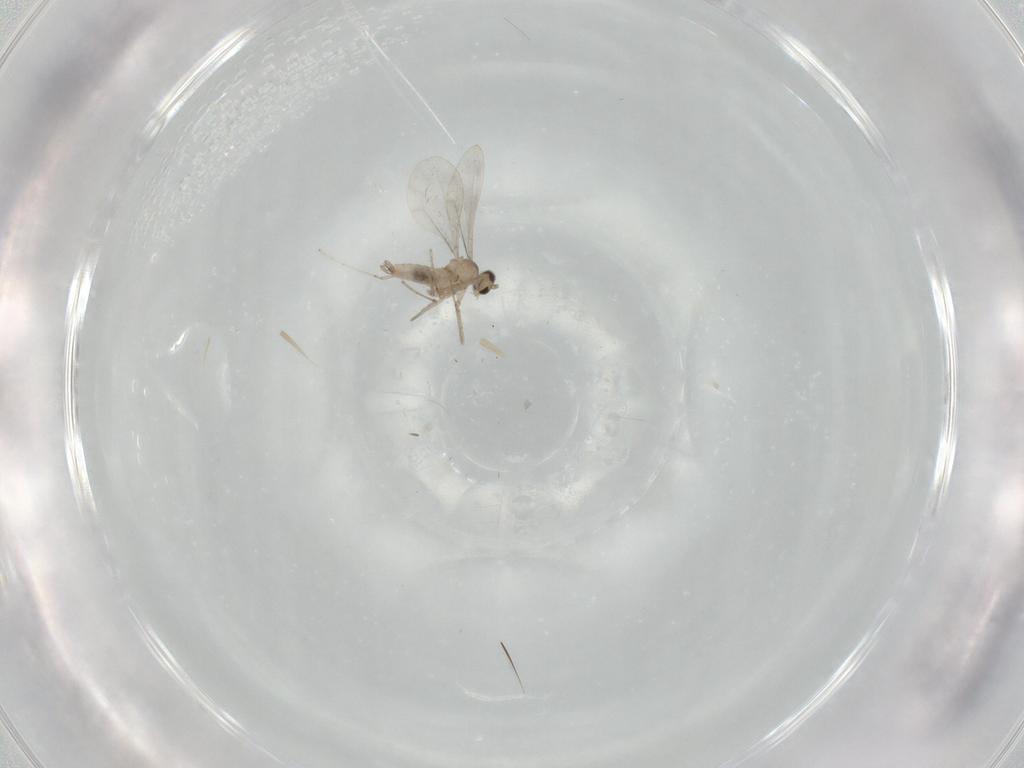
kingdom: Animalia
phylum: Arthropoda
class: Insecta
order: Diptera
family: Chironomidae
